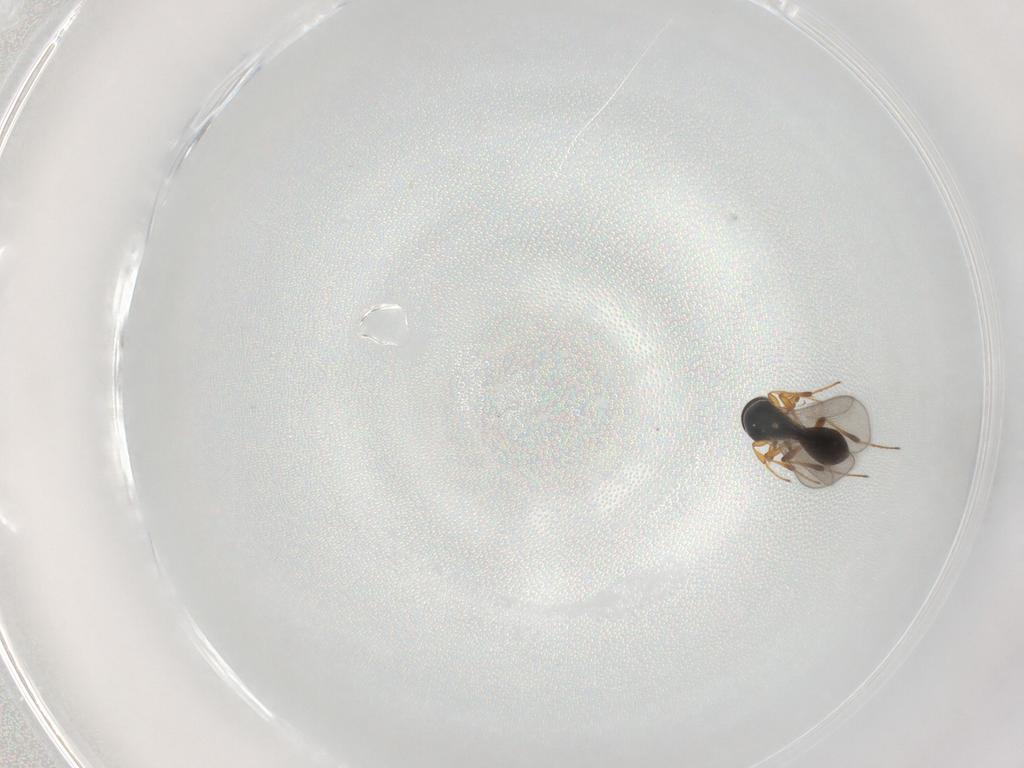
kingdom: Animalia
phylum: Arthropoda
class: Insecta
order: Hymenoptera
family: Platygastridae
